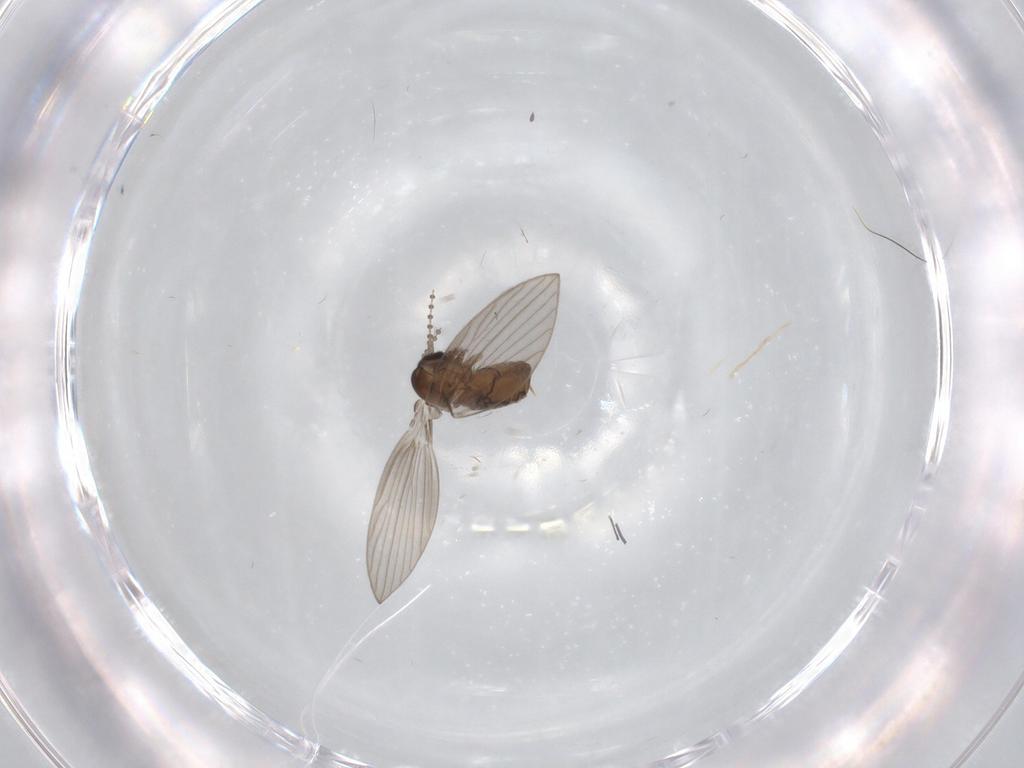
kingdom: Animalia
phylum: Arthropoda
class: Insecta
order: Diptera
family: Psychodidae
